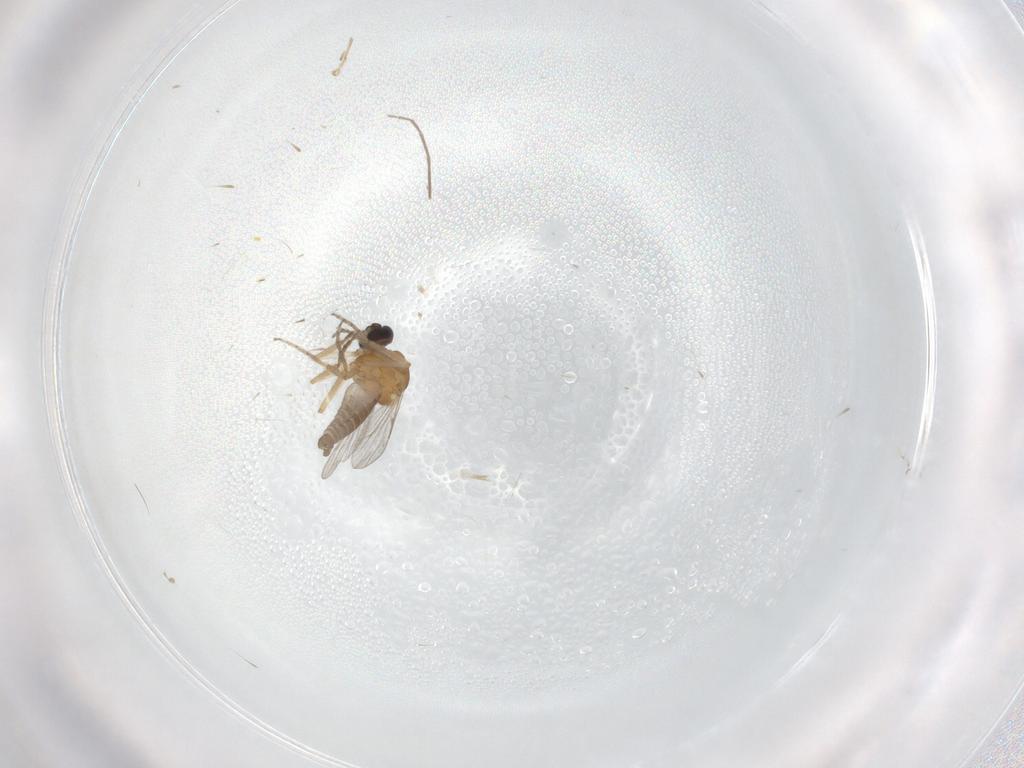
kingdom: Animalia
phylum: Arthropoda
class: Insecta
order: Diptera
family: Ceratopogonidae
